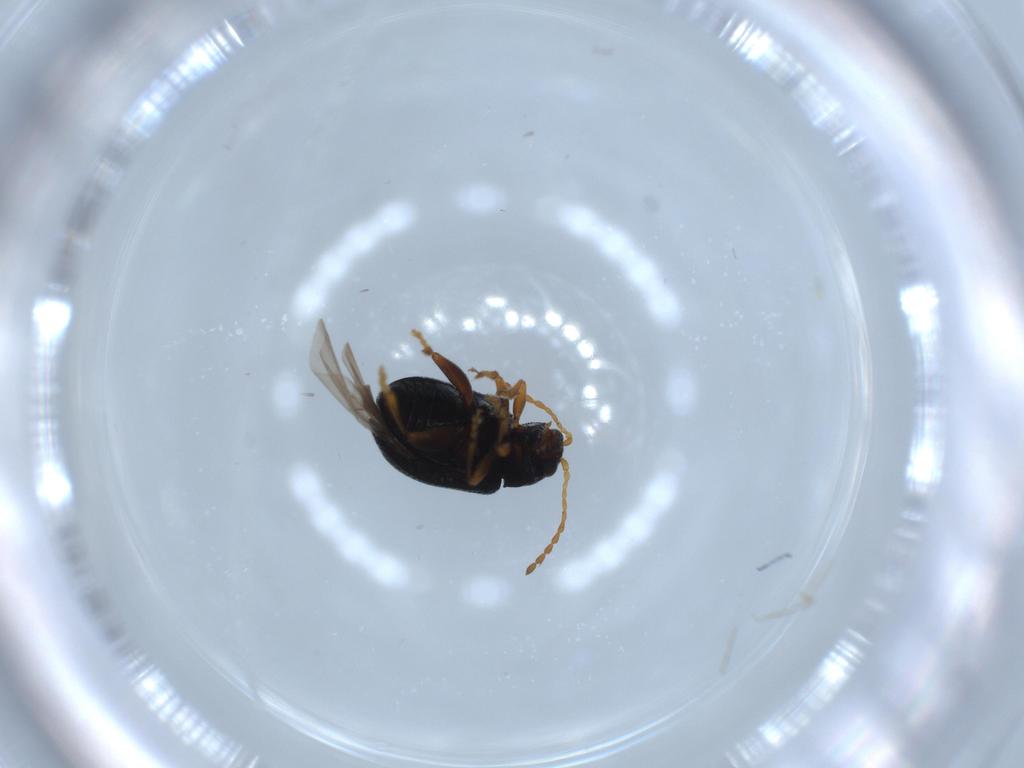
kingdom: Animalia
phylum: Arthropoda
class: Insecta
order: Coleoptera
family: Chrysomelidae
